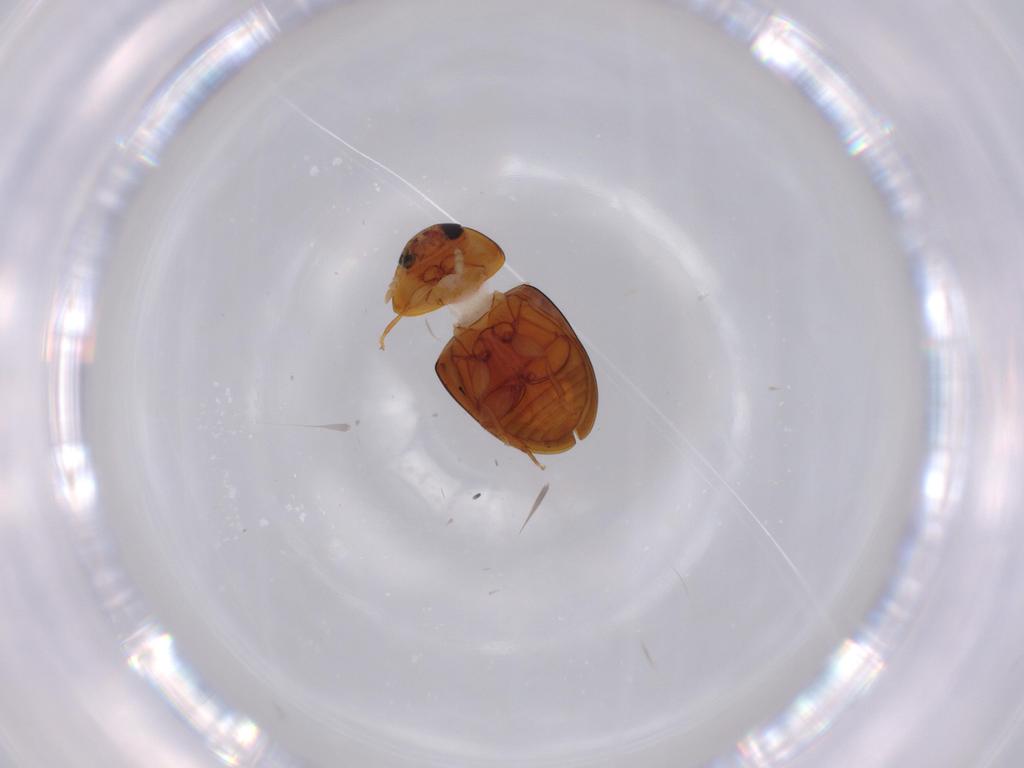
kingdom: Animalia
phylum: Arthropoda
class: Insecta
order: Coleoptera
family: Phalacridae
